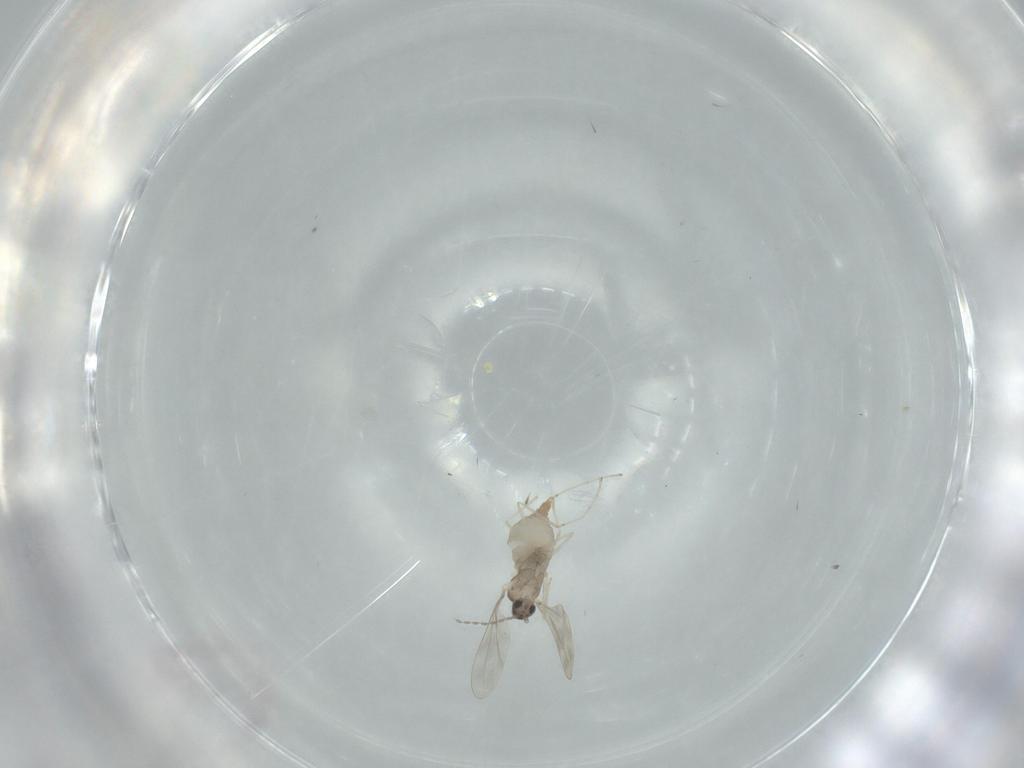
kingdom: Animalia
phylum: Arthropoda
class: Insecta
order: Diptera
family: Cecidomyiidae
